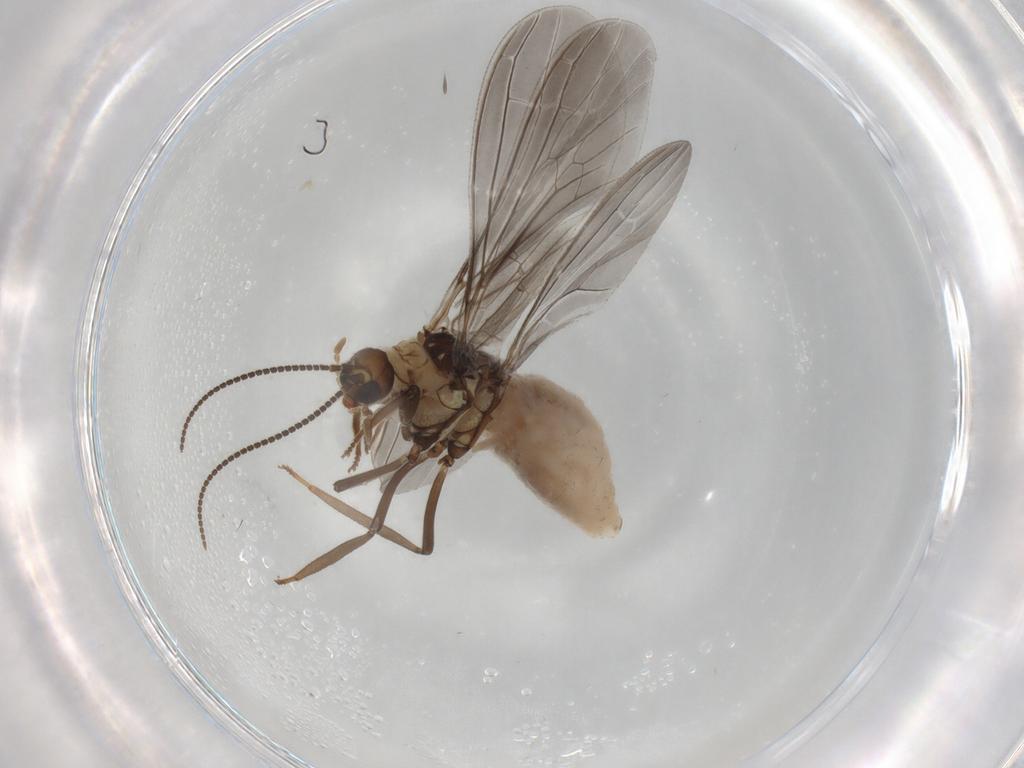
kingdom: Animalia
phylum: Arthropoda
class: Insecta
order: Neuroptera
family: Coniopterygidae
